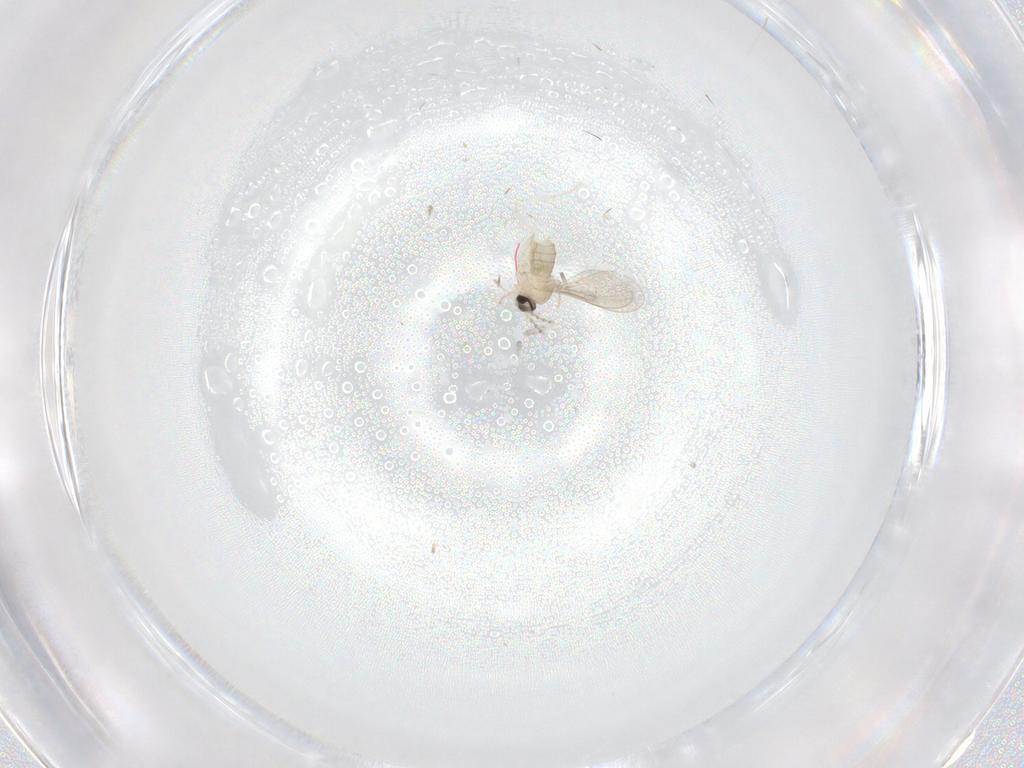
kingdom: Animalia
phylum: Arthropoda
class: Insecta
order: Diptera
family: Cecidomyiidae
